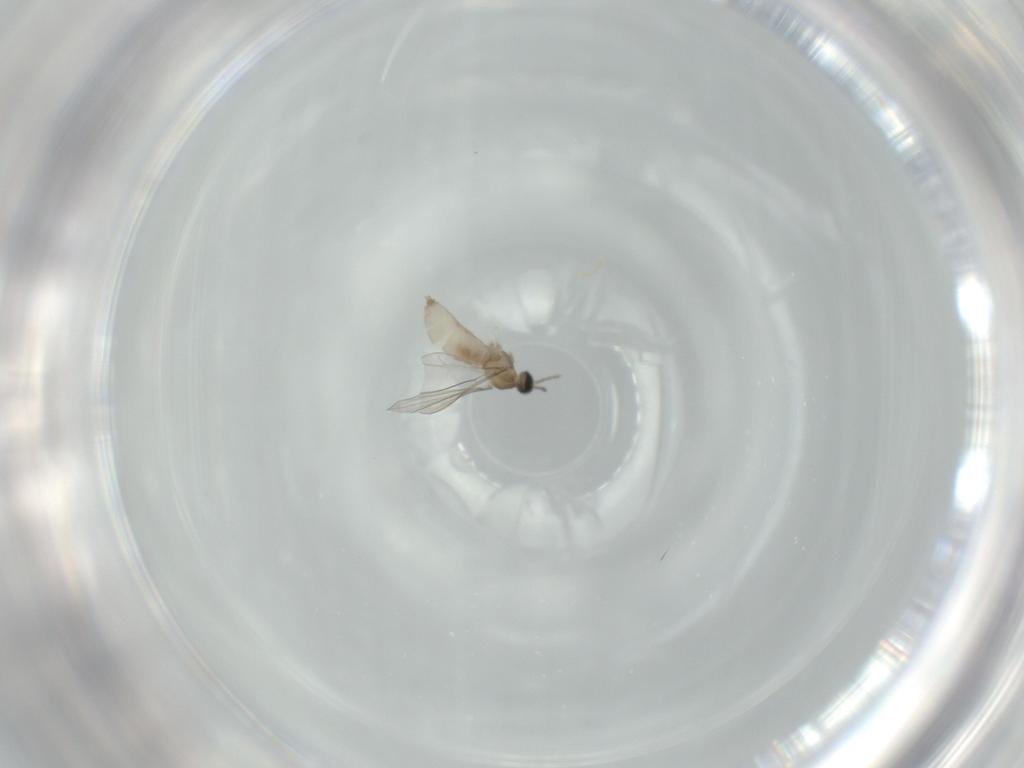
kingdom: Animalia
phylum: Arthropoda
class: Insecta
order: Diptera
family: Cecidomyiidae
